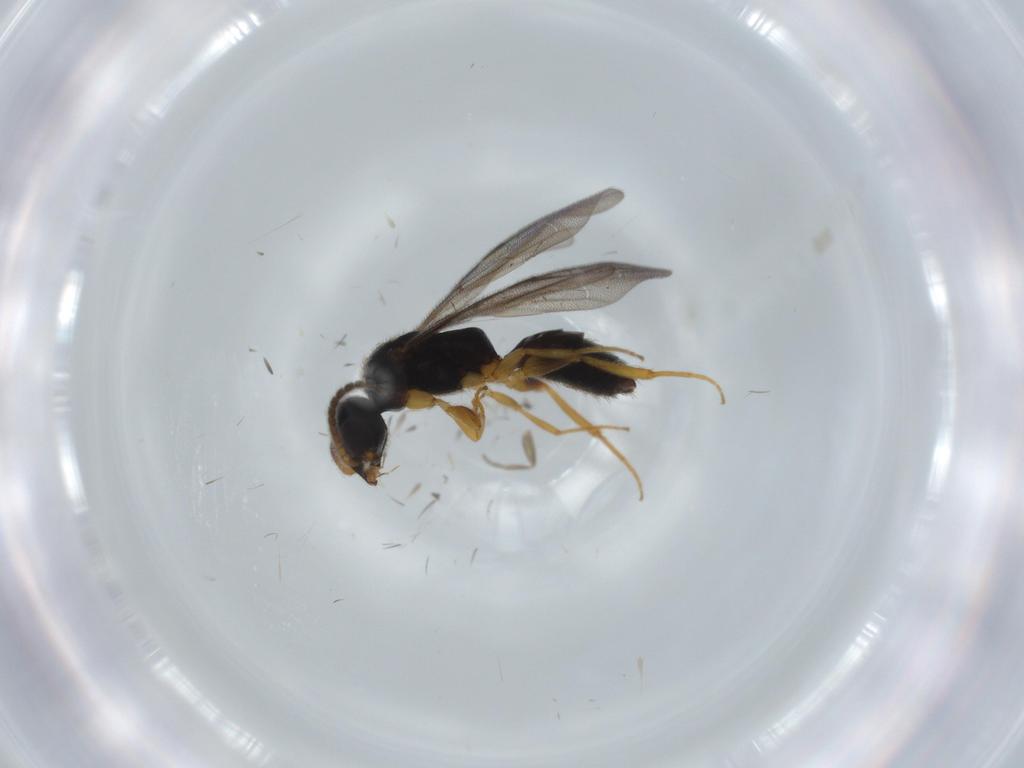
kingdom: Animalia
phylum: Arthropoda
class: Insecta
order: Diptera
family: Phoridae
